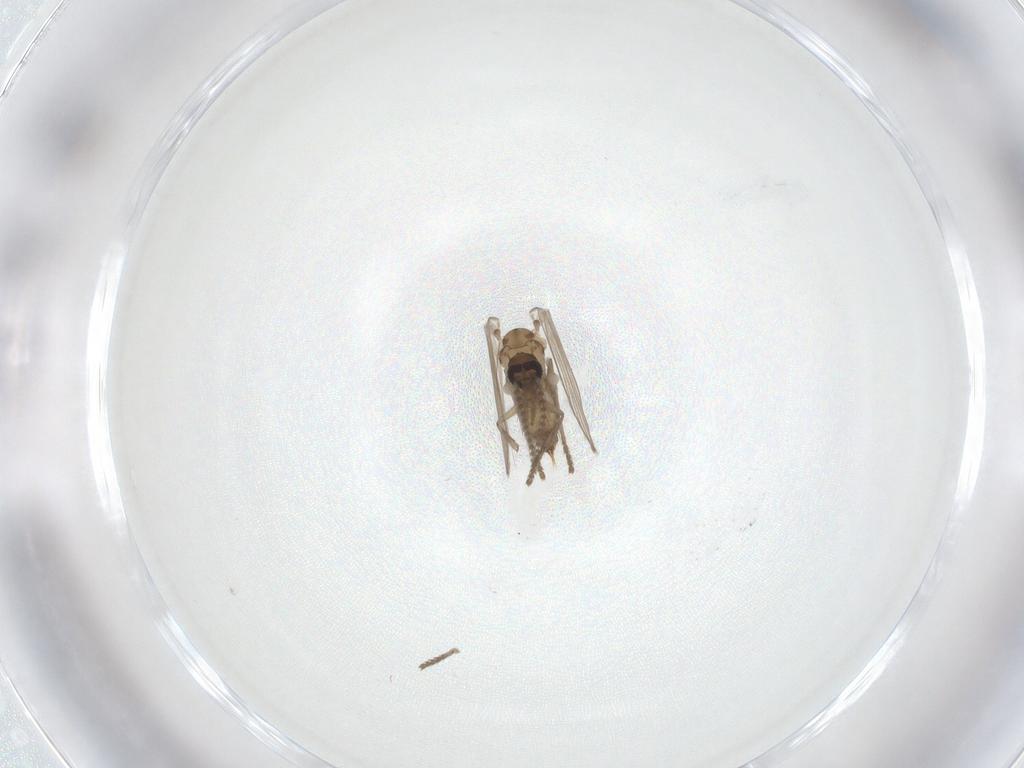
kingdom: Animalia
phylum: Arthropoda
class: Insecta
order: Diptera
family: Psychodidae
